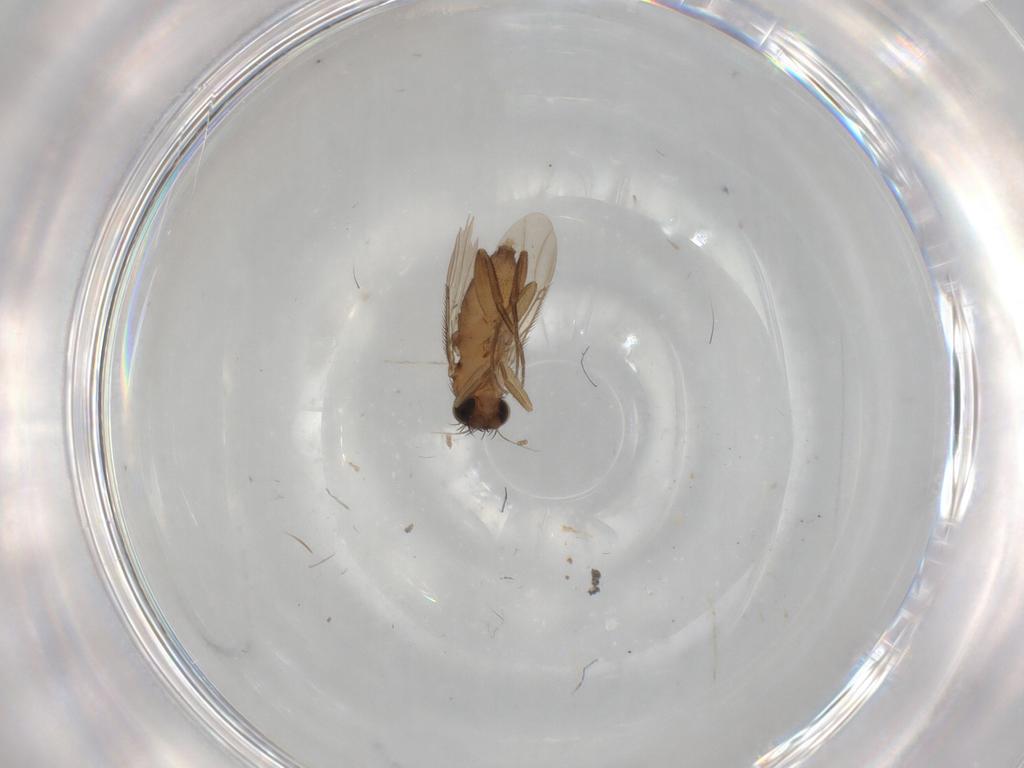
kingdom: Animalia
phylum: Arthropoda
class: Insecta
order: Diptera
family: Phoridae
